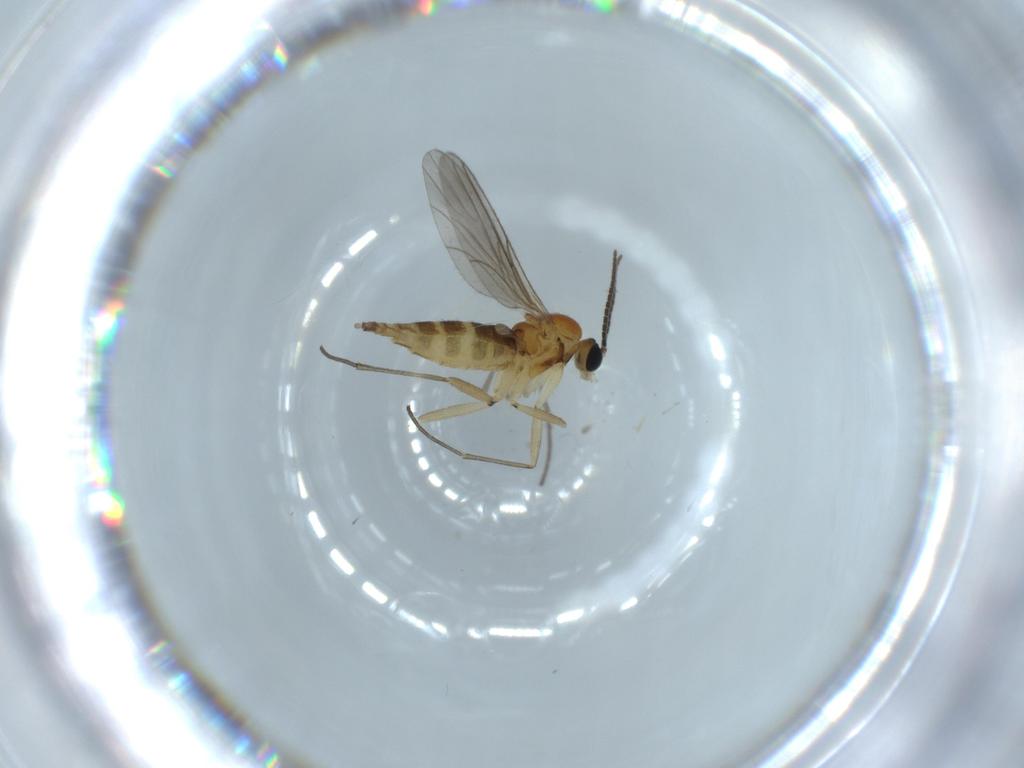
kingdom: Animalia
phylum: Arthropoda
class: Insecta
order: Diptera
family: Sciaridae
